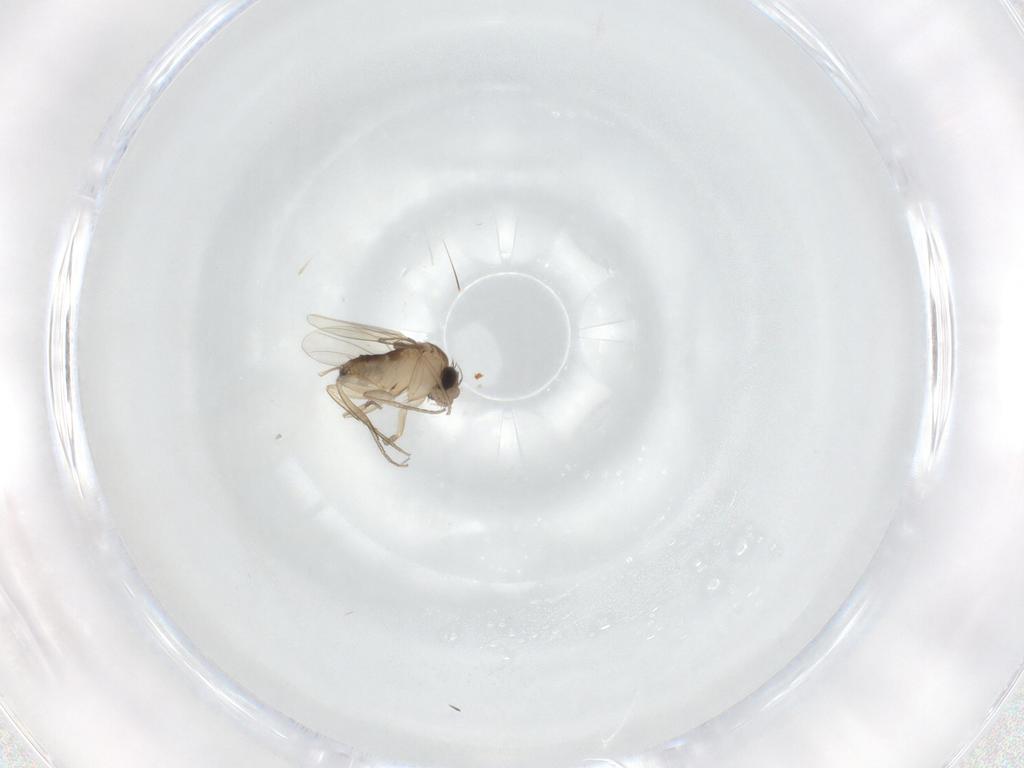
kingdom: Animalia
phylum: Arthropoda
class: Insecta
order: Diptera
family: Phoridae
